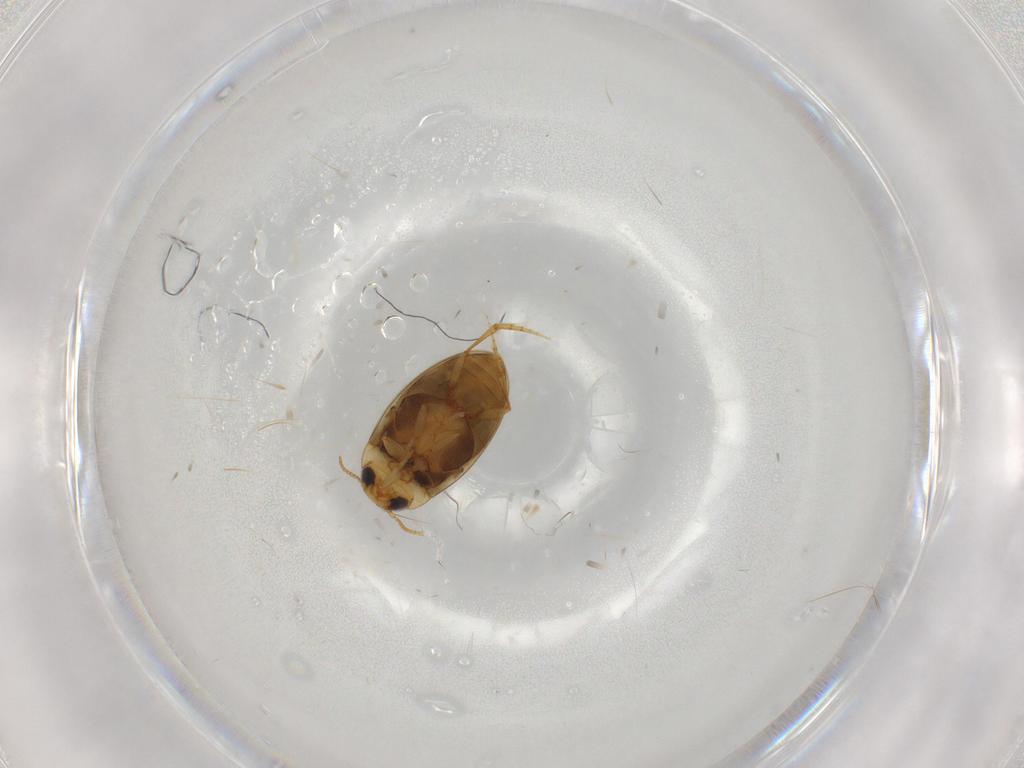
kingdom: Animalia
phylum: Arthropoda
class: Insecta
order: Coleoptera
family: Dytiscidae
